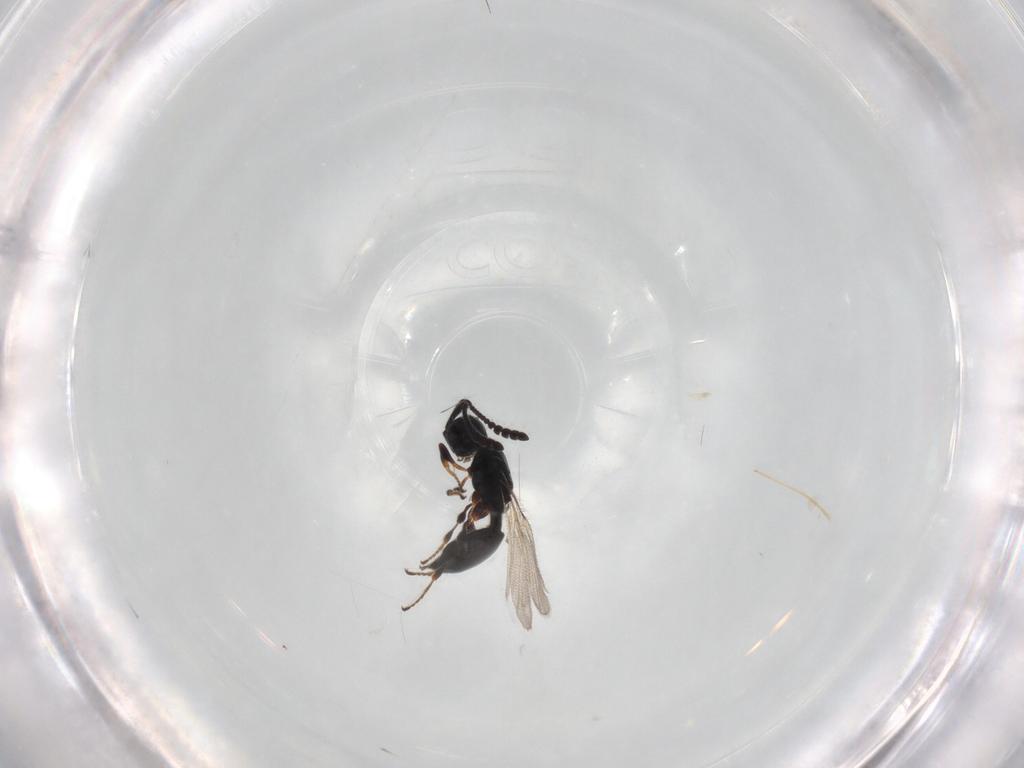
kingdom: Animalia
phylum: Arthropoda
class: Insecta
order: Hymenoptera
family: Diapriidae
